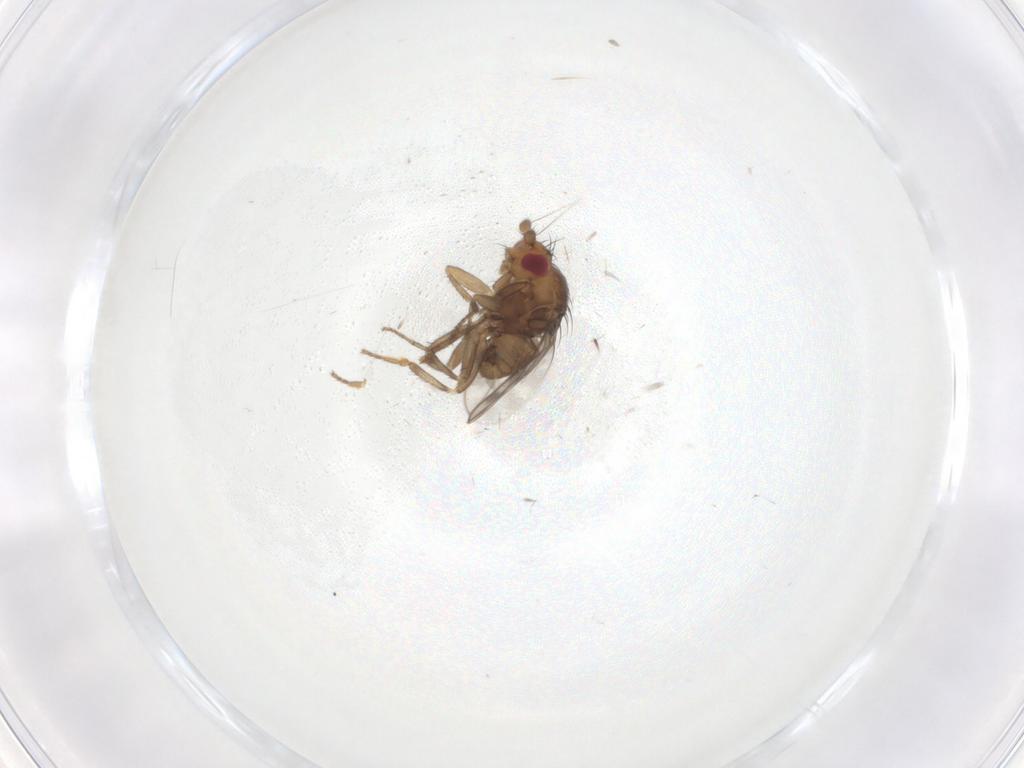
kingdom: Animalia
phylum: Arthropoda
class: Insecta
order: Diptera
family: Sphaeroceridae
